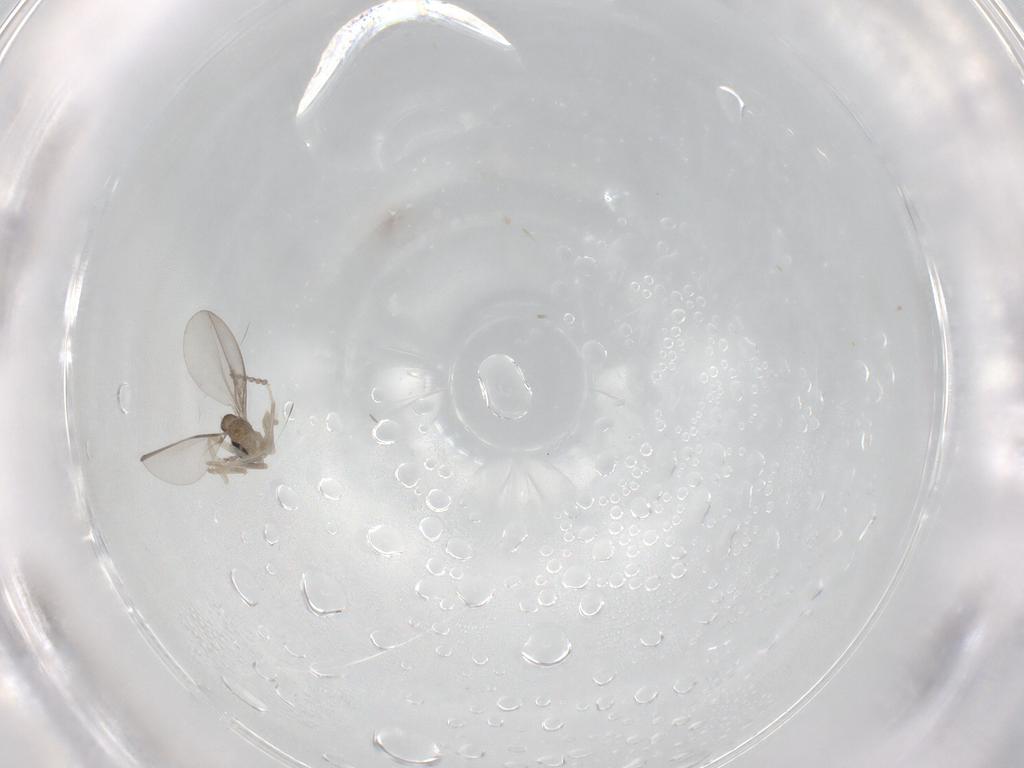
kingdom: Animalia
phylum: Arthropoda
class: Insecta
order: Diptera
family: Cecidomyiidae
